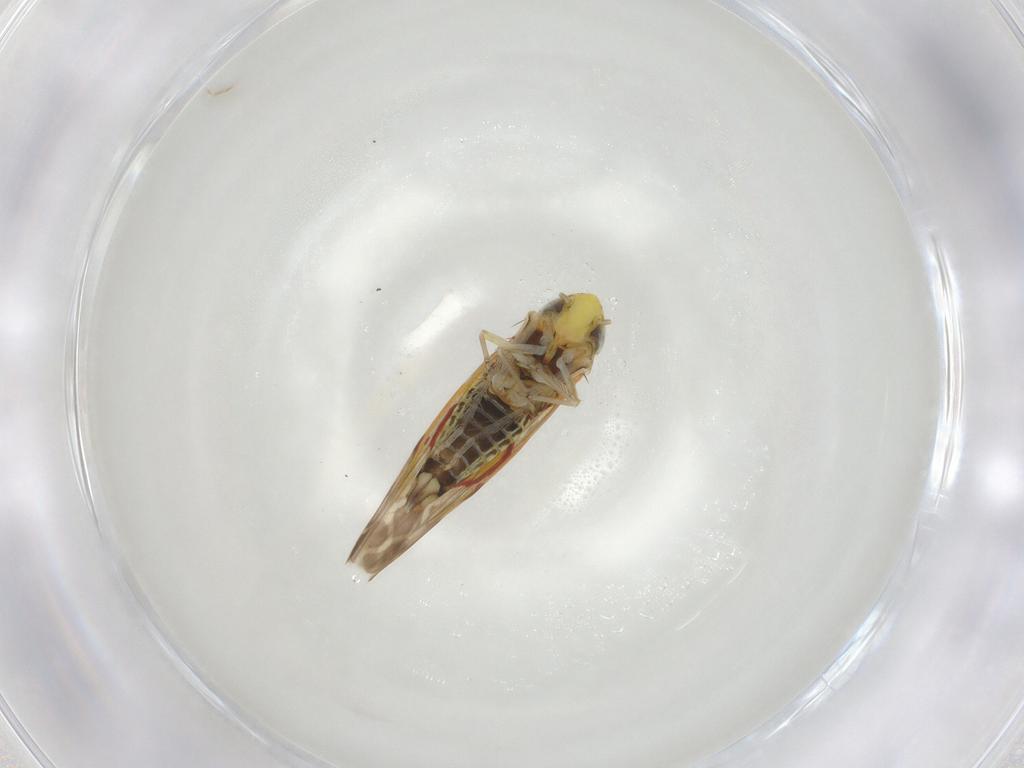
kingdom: Animalia
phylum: Arthropoda
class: Insecta
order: Hemiptera
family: Cicadellidae
